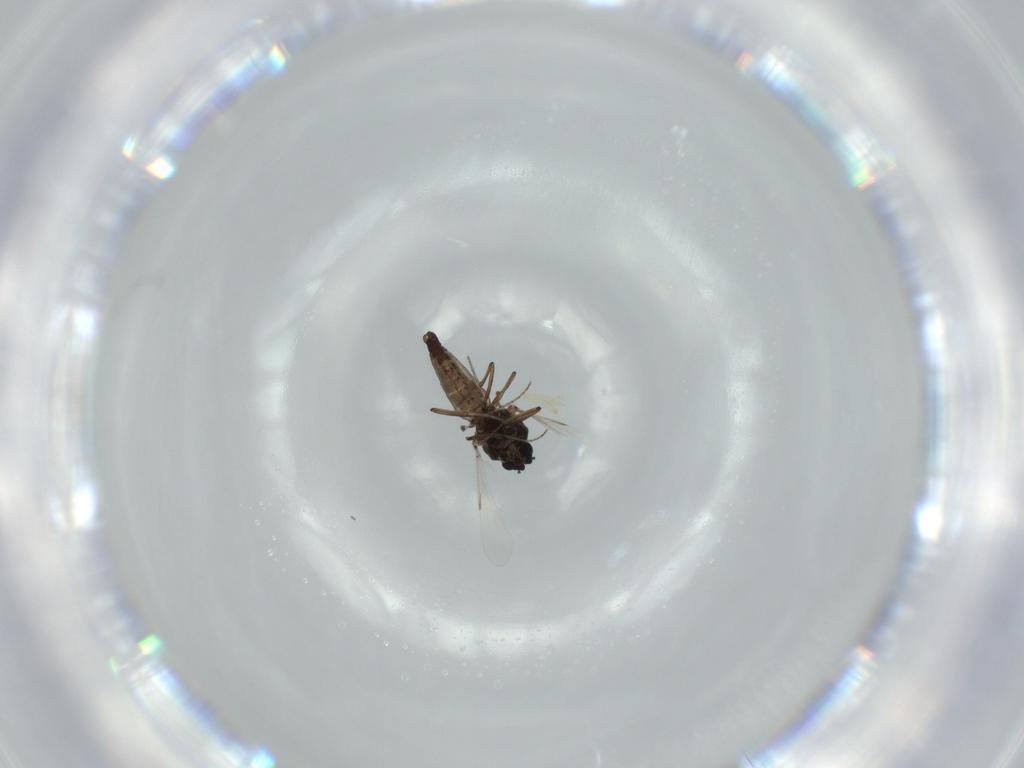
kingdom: Animalia
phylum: Arthropoda
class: Insecta
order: Diptera
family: Ceratopogonidae
